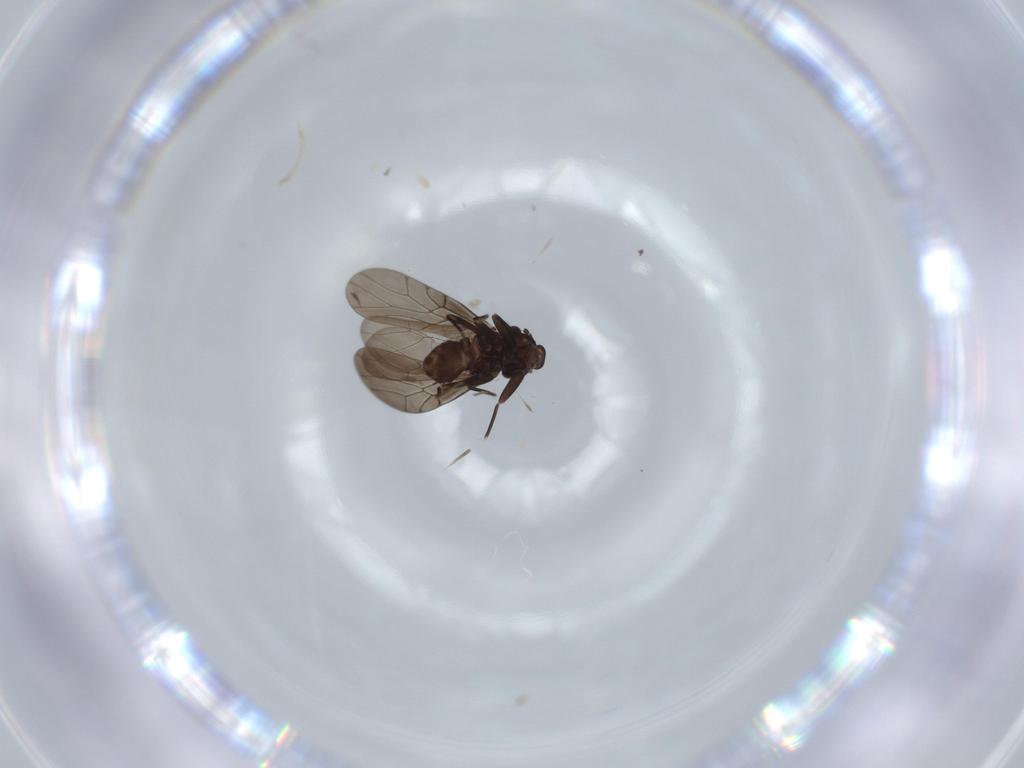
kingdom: Animalia
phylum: Arthropoda
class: Insecta
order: Psocodea
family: Lepidopsocidae
